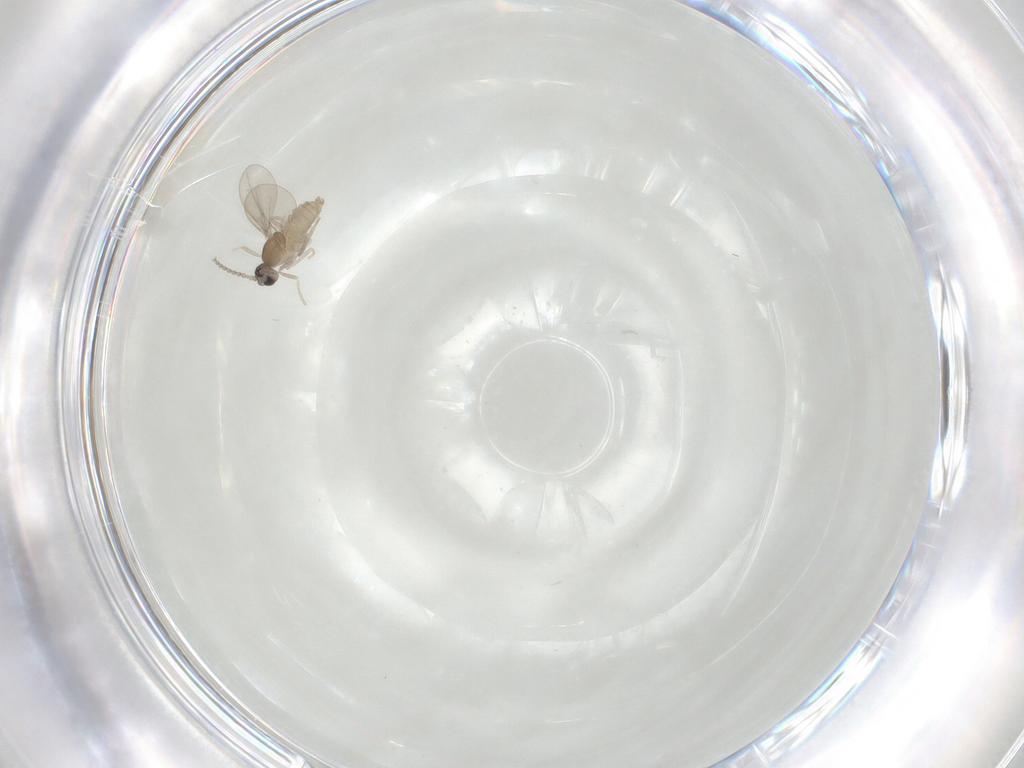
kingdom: Animalia
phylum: Arthropoda
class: Insecta
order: Diptera
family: Cecidomyiidae
